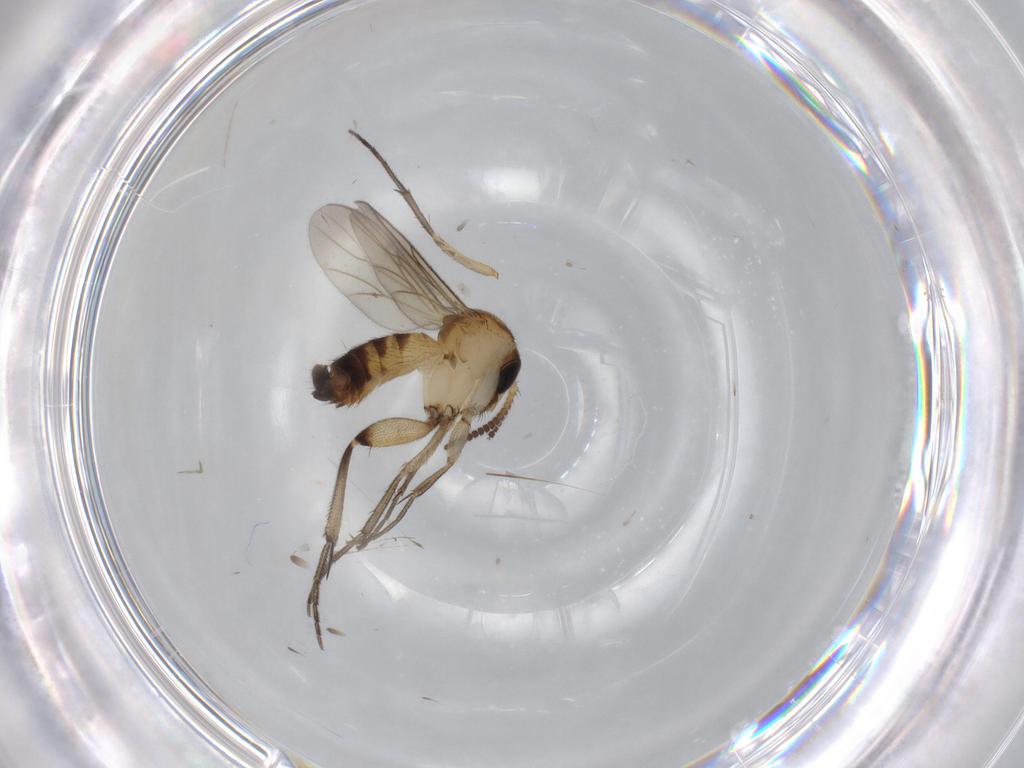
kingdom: Animalia
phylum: Arthropoda
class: Insecta
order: Diptera
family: Mycetophilidae
